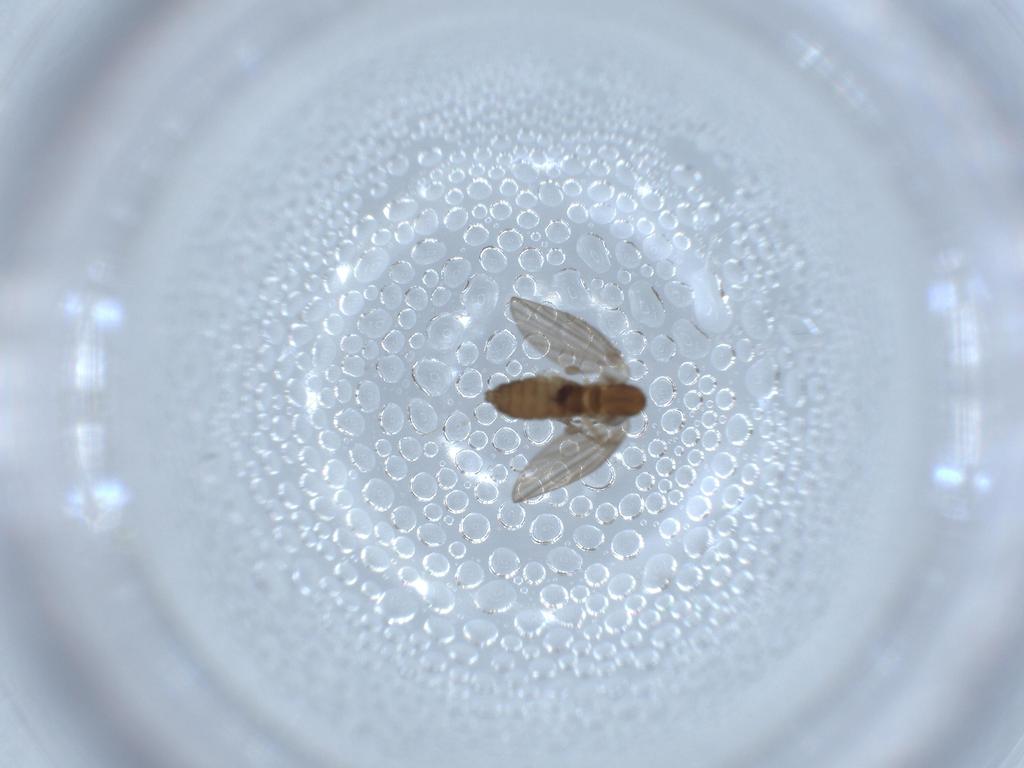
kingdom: Animalia
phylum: Arthropoda
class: Insecta
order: Diptera
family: Psychodidae
